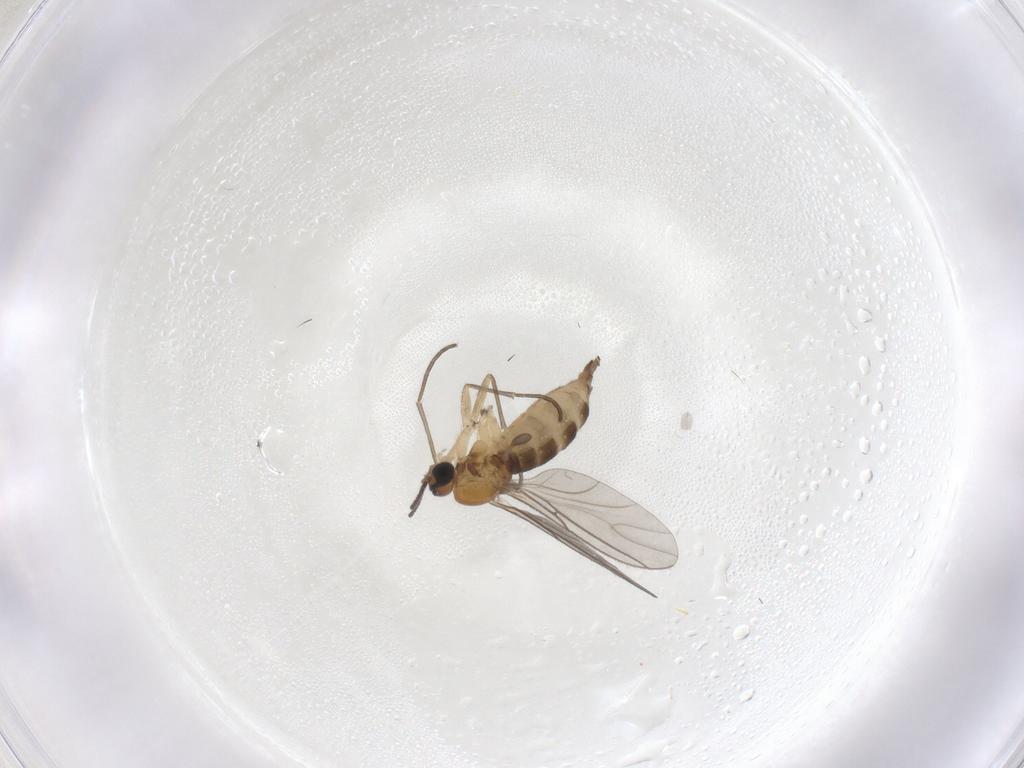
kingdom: Animalia
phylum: Arthropoda
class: Insecta
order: Diptera
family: Sciaridae
